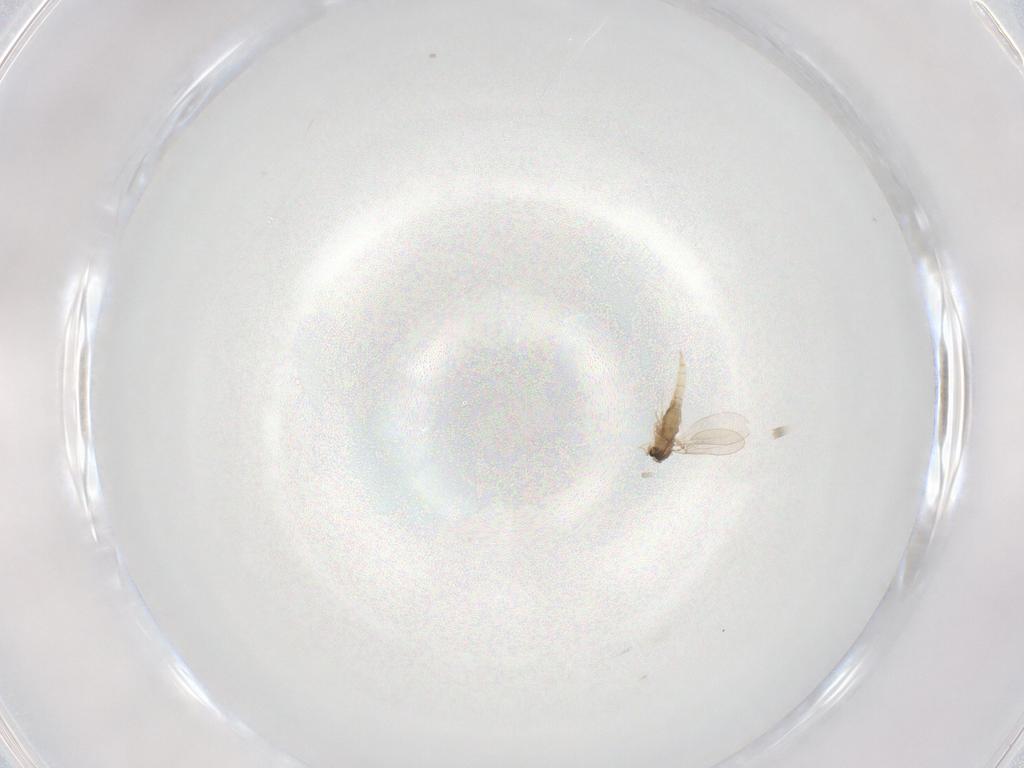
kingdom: Animalia
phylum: Arthropoda
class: Insecta
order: Diptera
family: Cecidomyiidae
